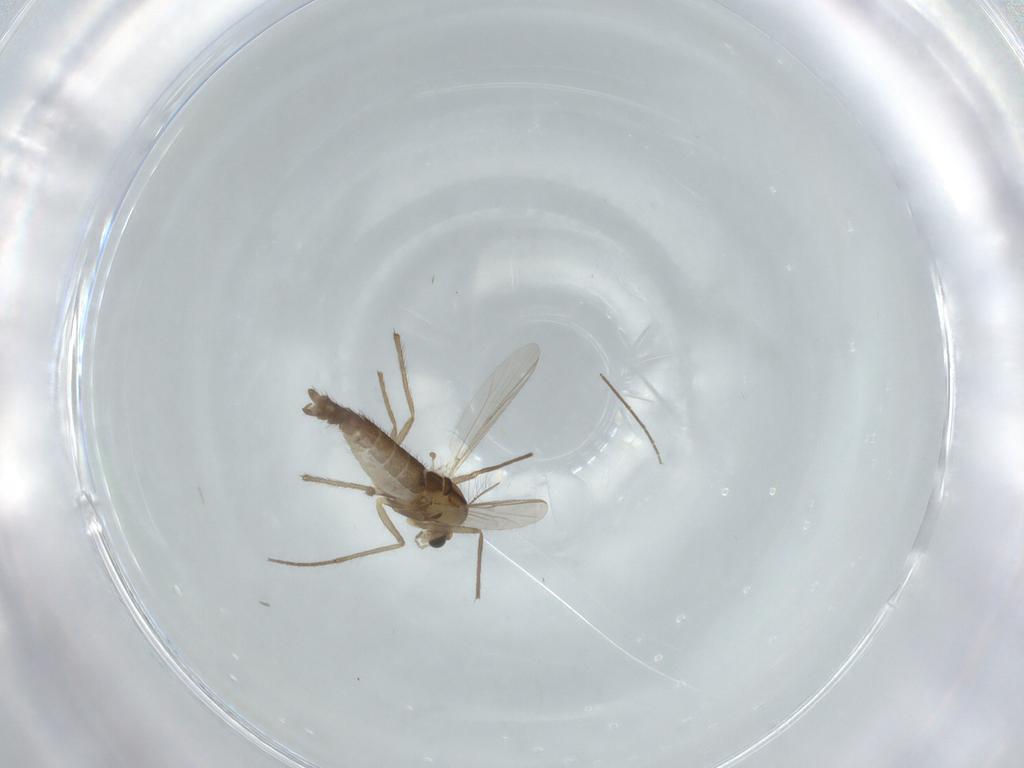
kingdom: Animalia
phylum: Arthropoda
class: Insecta
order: Diptera
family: Chironomidae
